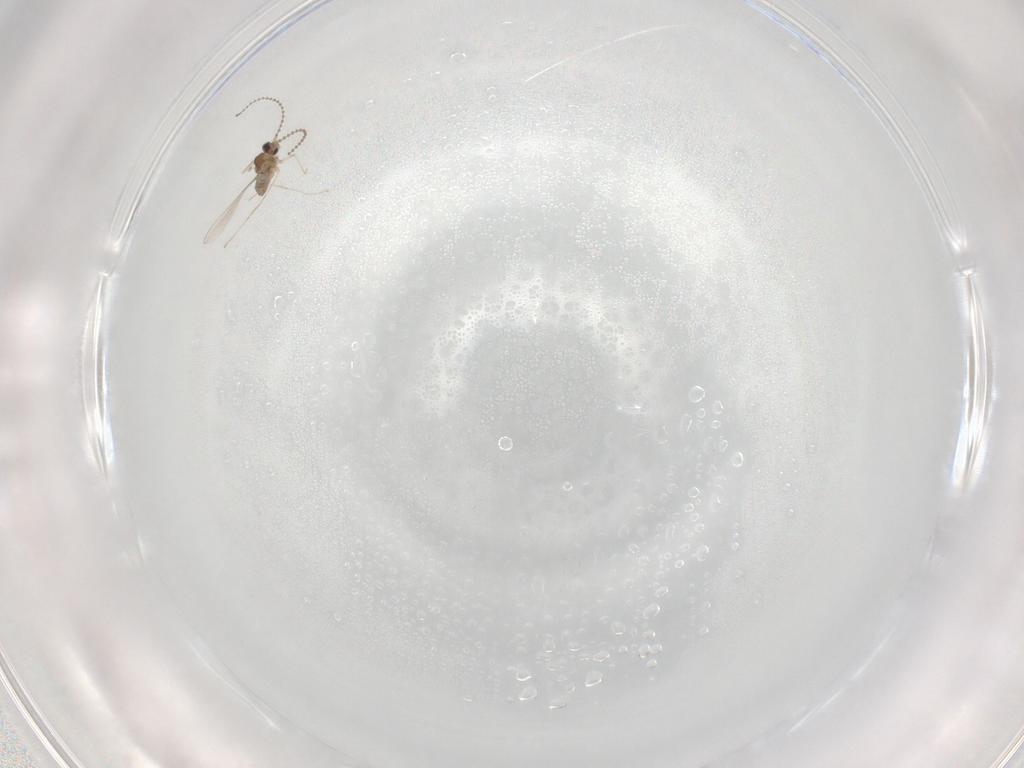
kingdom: Animalia
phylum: Arthropoda
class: Insecta
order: Diptera
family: Cecidomyiidae
